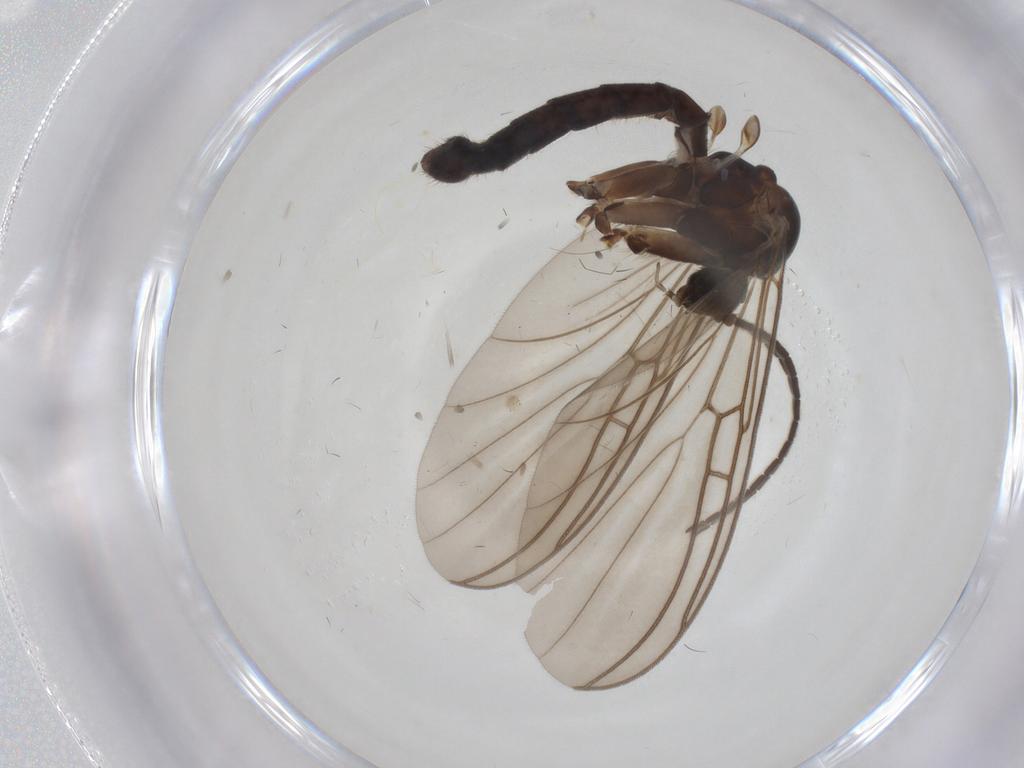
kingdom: Animalia
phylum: Arthropoda
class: Insecta
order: Diptera
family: Mycetophilidae
